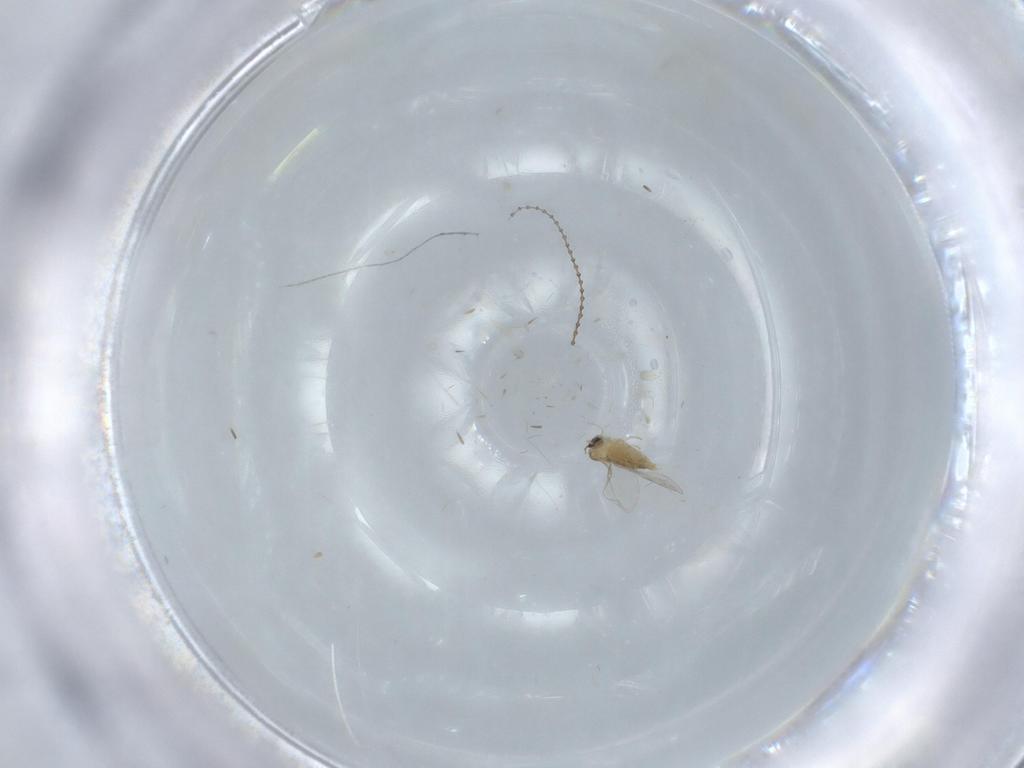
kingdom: Animalia
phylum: Arthropoda
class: Insecta
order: Diptera
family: Cecidomyiidae
